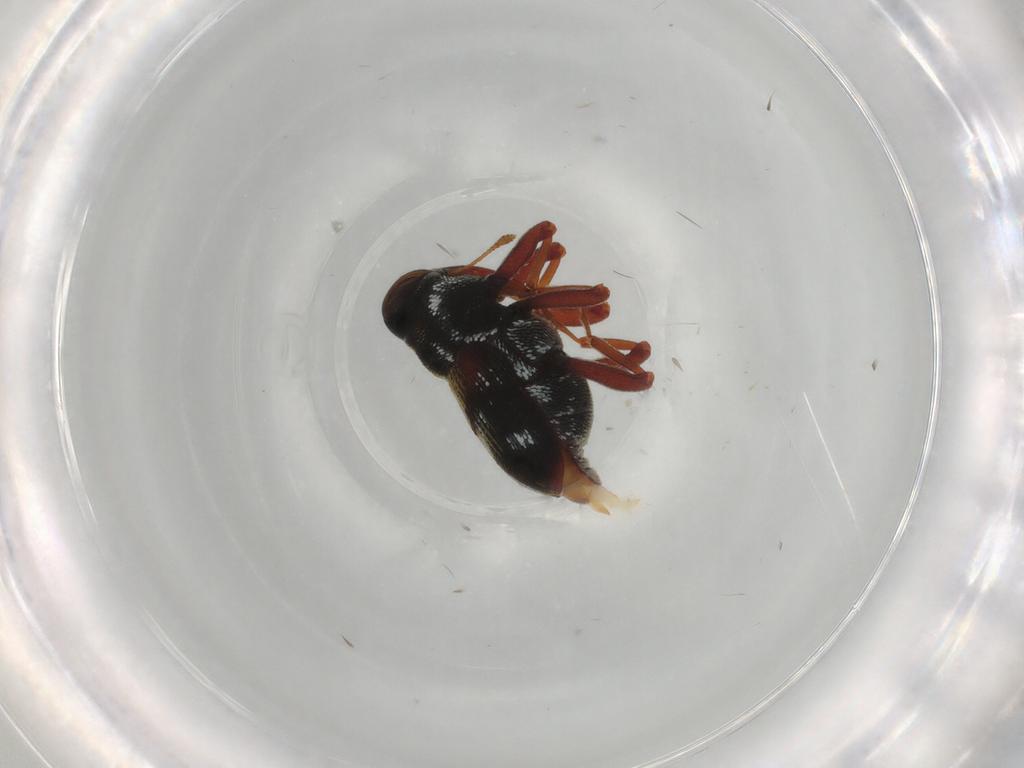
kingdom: Animalia
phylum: Arthropoda
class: Insecta
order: Coleoptera
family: Curculionidae
